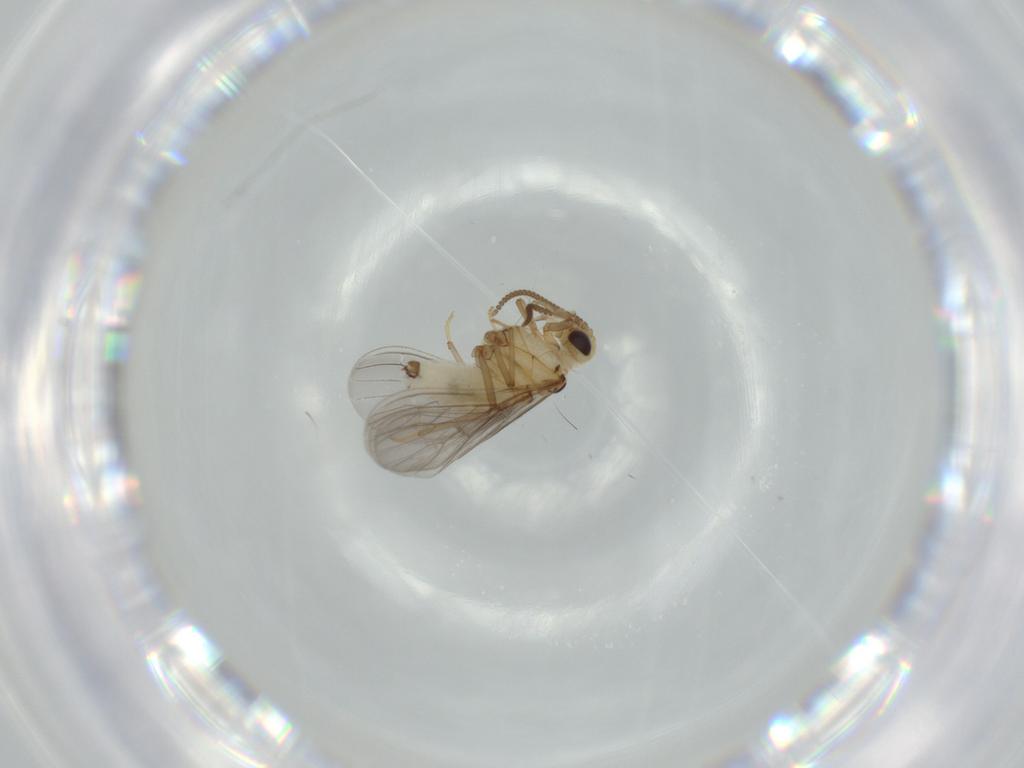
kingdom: Animalia
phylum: Arthropoda
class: Insecta
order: Neuroptera
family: Coniopterygidae
